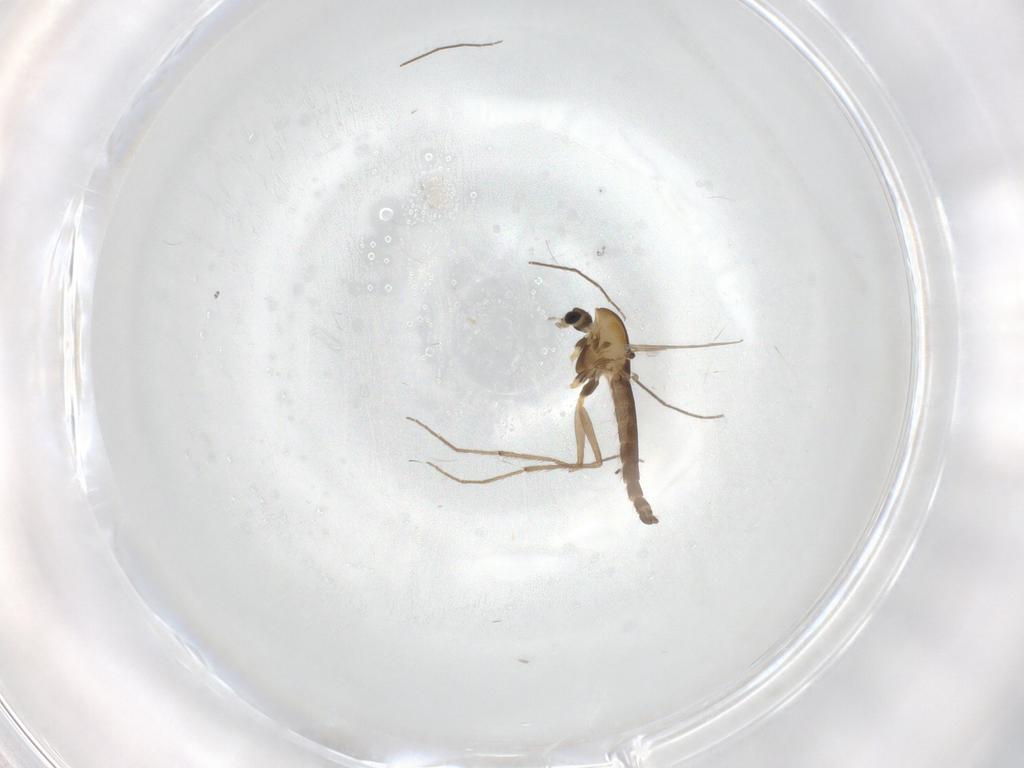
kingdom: Animalia
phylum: Arthropoda
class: Insecta
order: Diptera
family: Chironomidae
